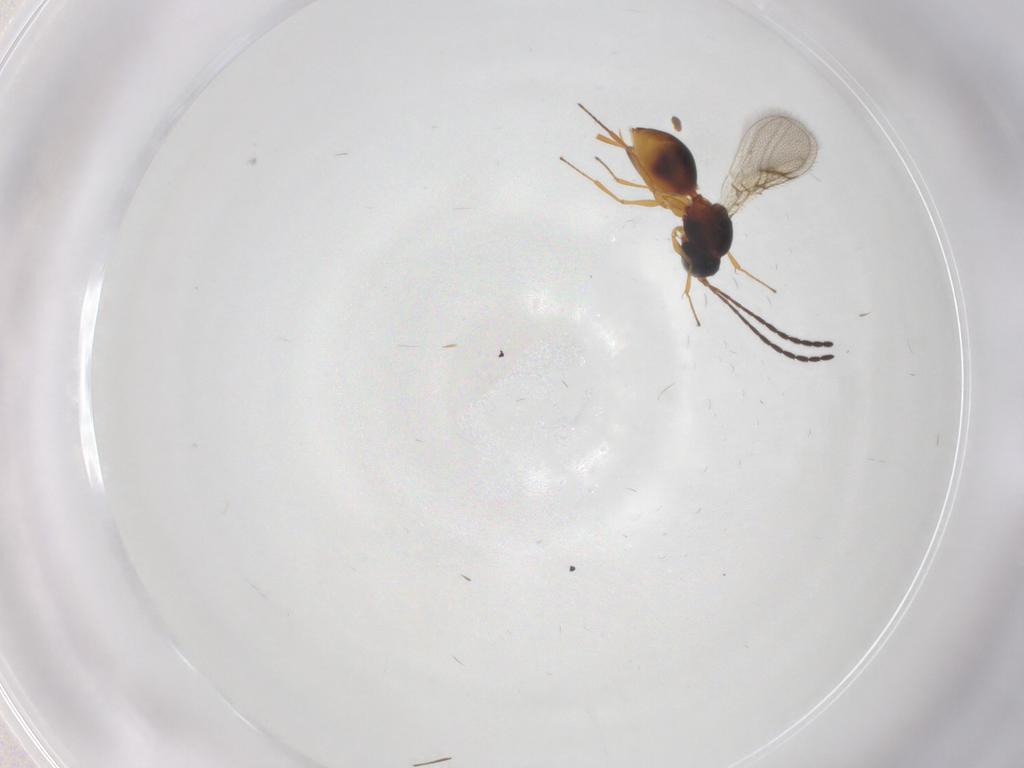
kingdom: Animalia
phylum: Arthropoda
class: Insecta
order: Hymenoptera
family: Figitidae
